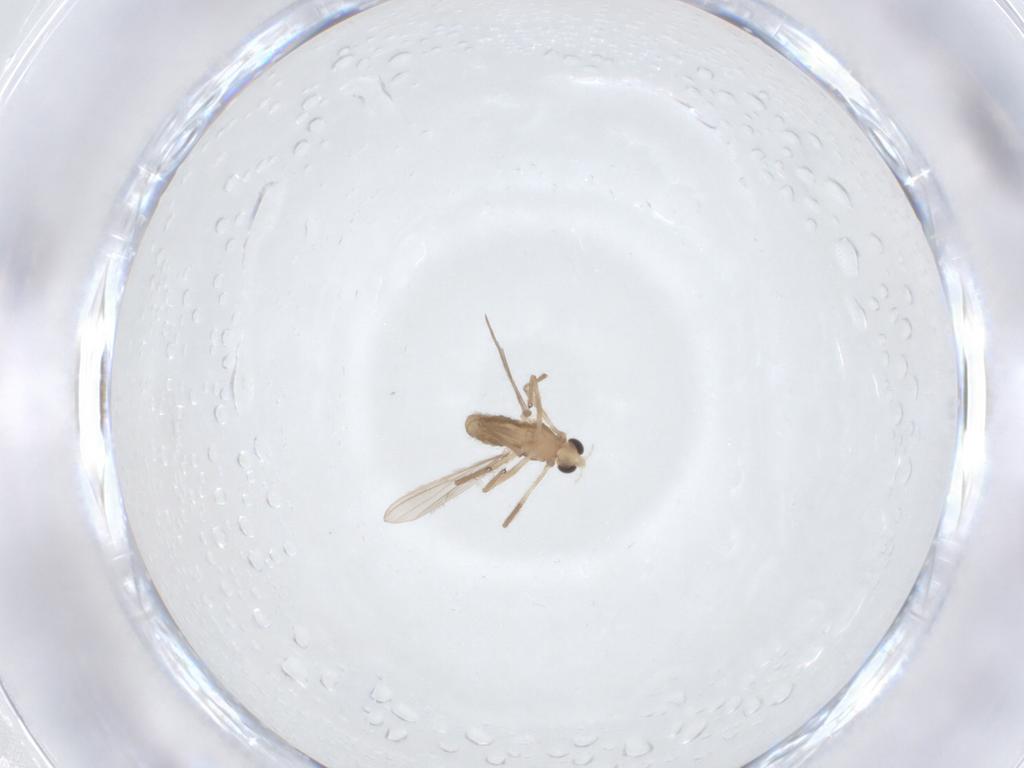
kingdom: Animalia
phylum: Arthropoda
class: Insecta
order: Diptera
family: Chironomidae
